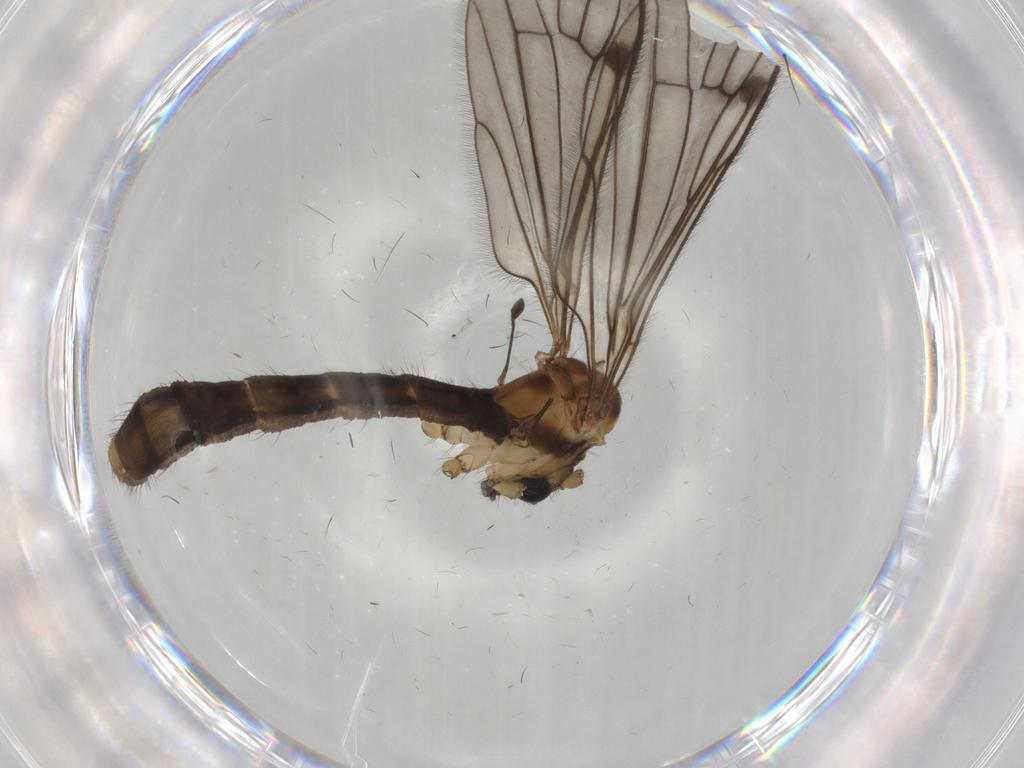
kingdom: Animalia
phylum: Arthropoda
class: Insecta
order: Diptera
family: Limoniidae
